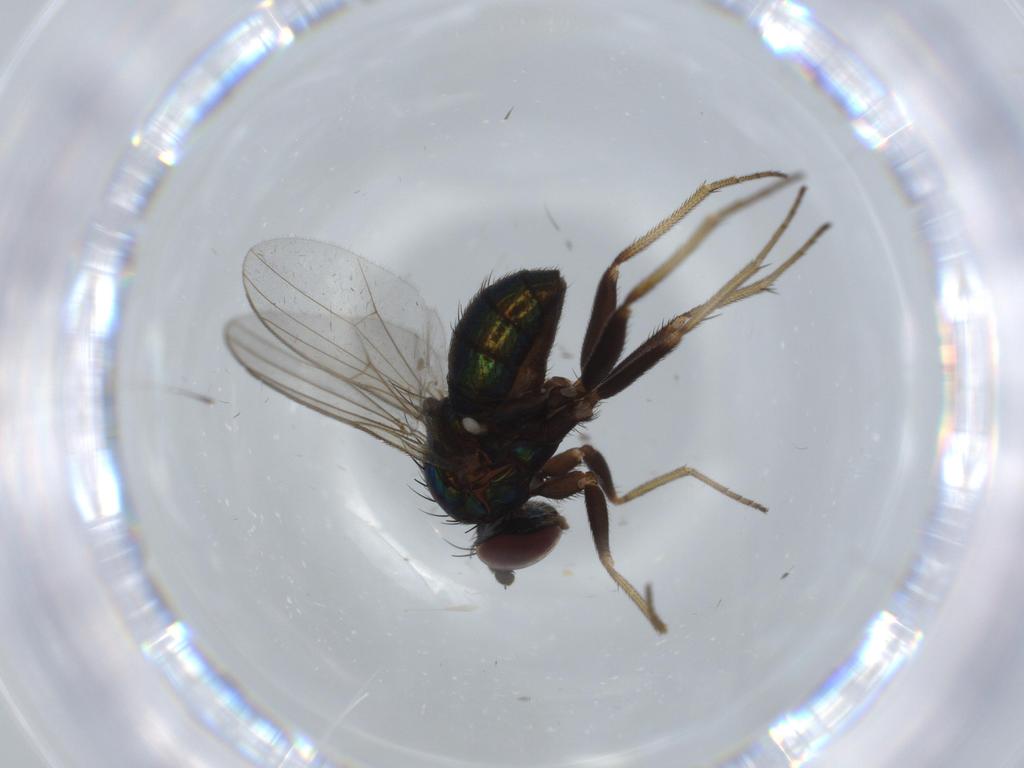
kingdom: Animalia
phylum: Arthropoda
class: Insecta
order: Diptera
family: Dolichopodidae
